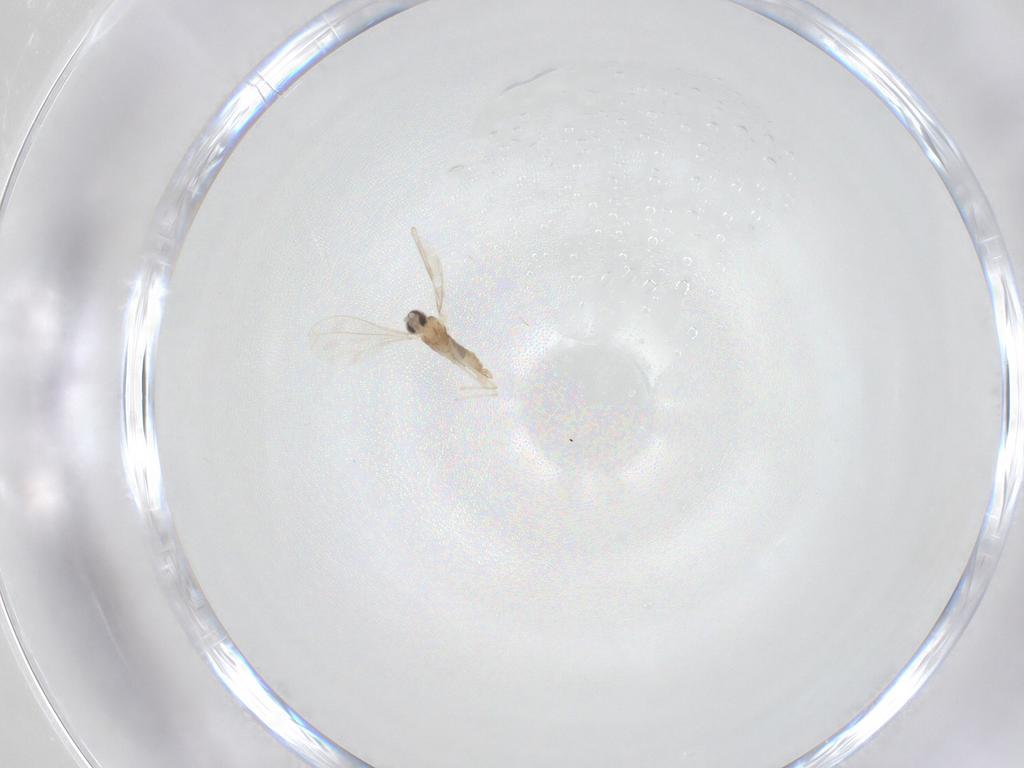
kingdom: Animalia
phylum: Arthropoda
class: Insecta
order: Diptera
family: Cecidomyiidae
